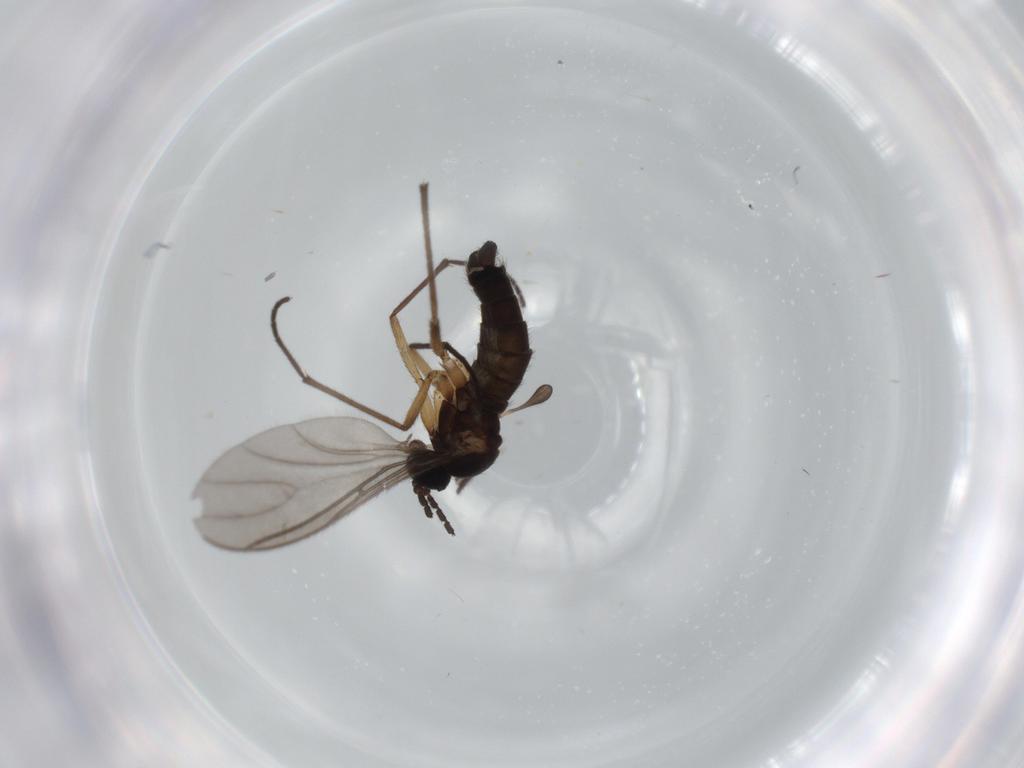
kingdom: Animalia
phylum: Arthropoda
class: Insecta
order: Diptera
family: Sciaridae
